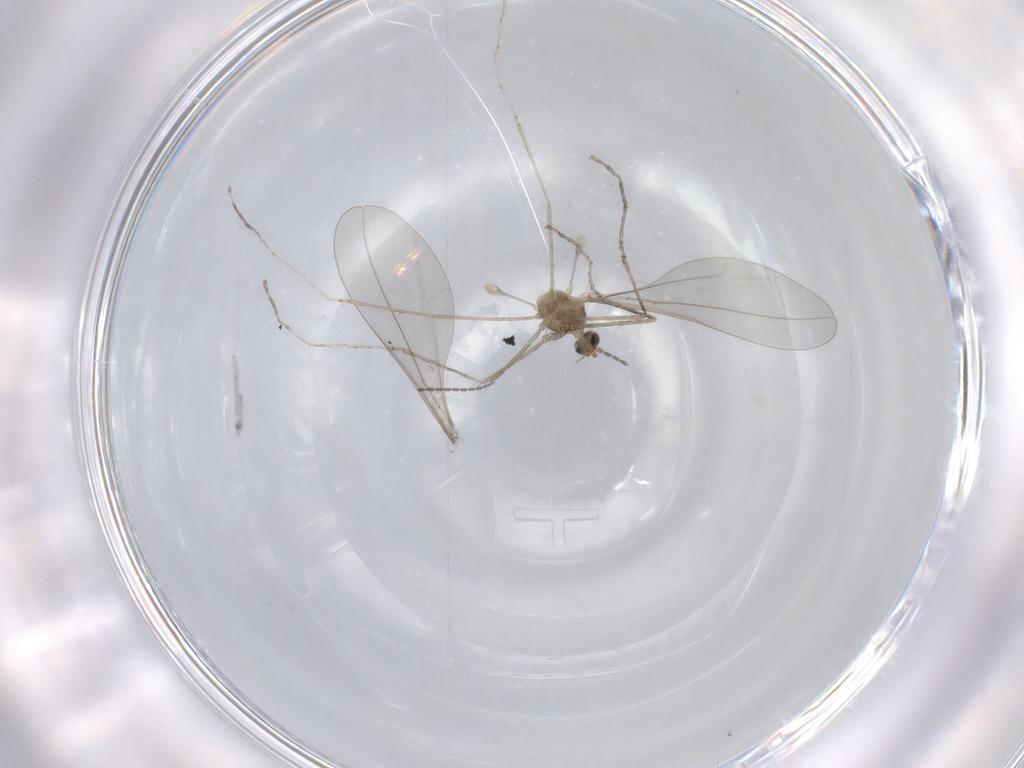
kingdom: Animalia
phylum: Arthropoda
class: Insecta
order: Diptera
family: Cecidomyiidae
